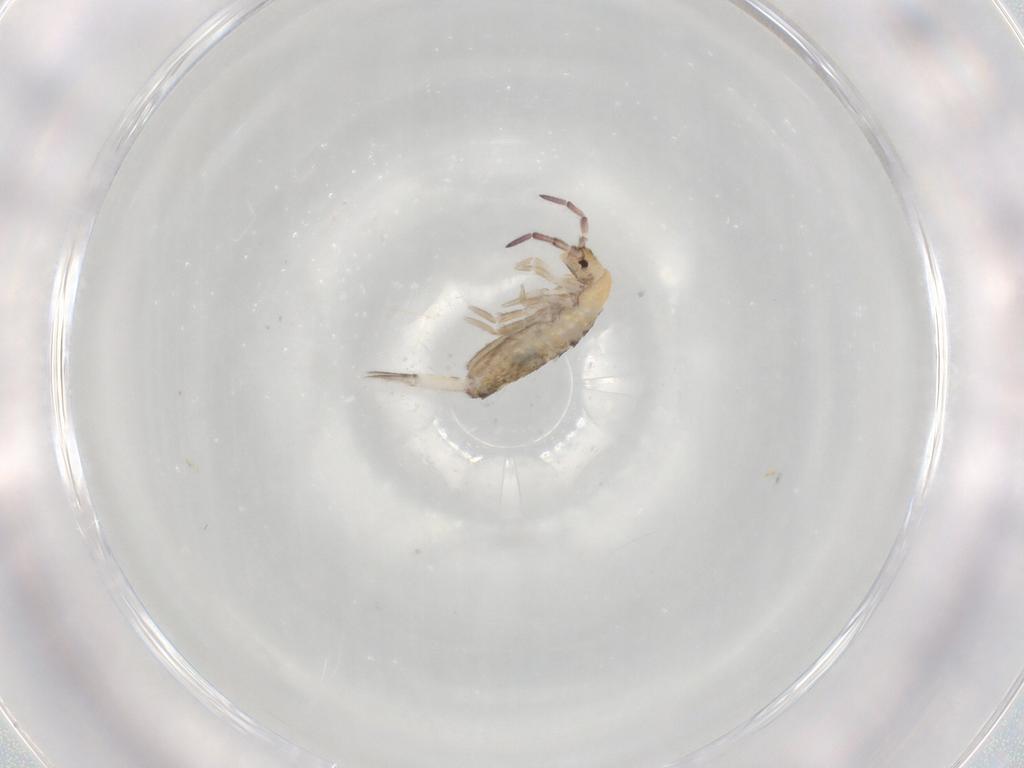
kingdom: Animalia
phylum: Arthropoda
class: Collembola
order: Entomobryomorpha
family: Entomobryidae
